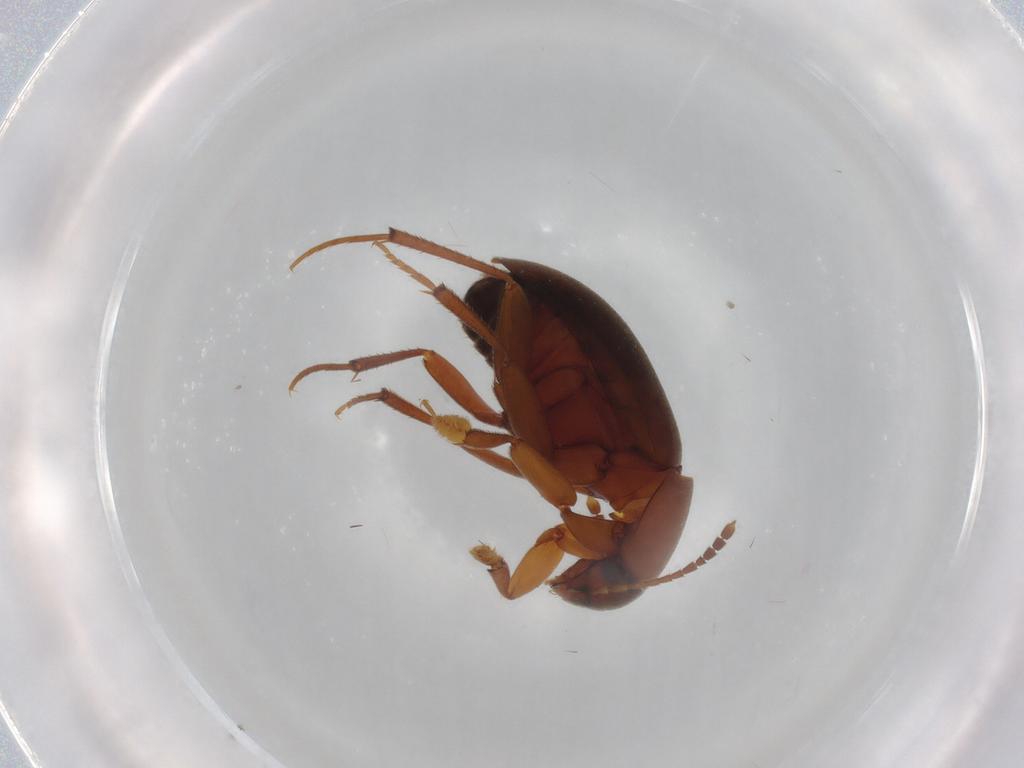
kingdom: Animalia
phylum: Arthropoda
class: Insecta
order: Coleoptera
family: Leiodidae
